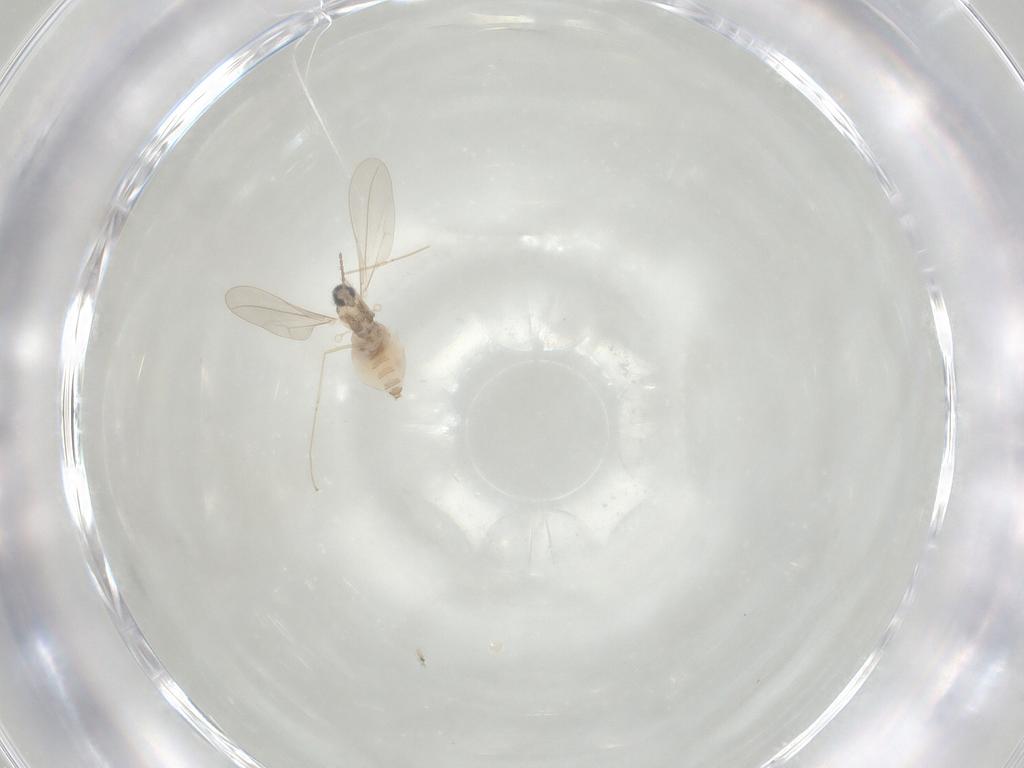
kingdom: Animalia
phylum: Arthropoda
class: Insecta
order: Diptera
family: Cecidomyiidae
